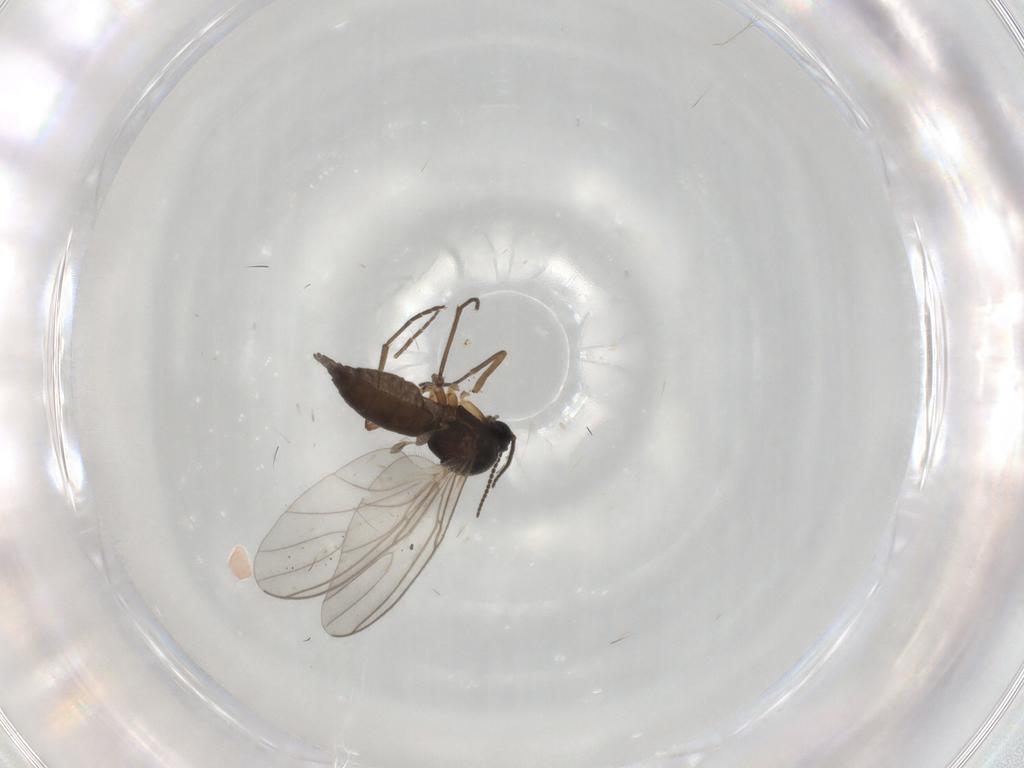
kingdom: Animalia
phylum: Arthropoda
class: Insecta
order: Diptera
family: Sciaridae
